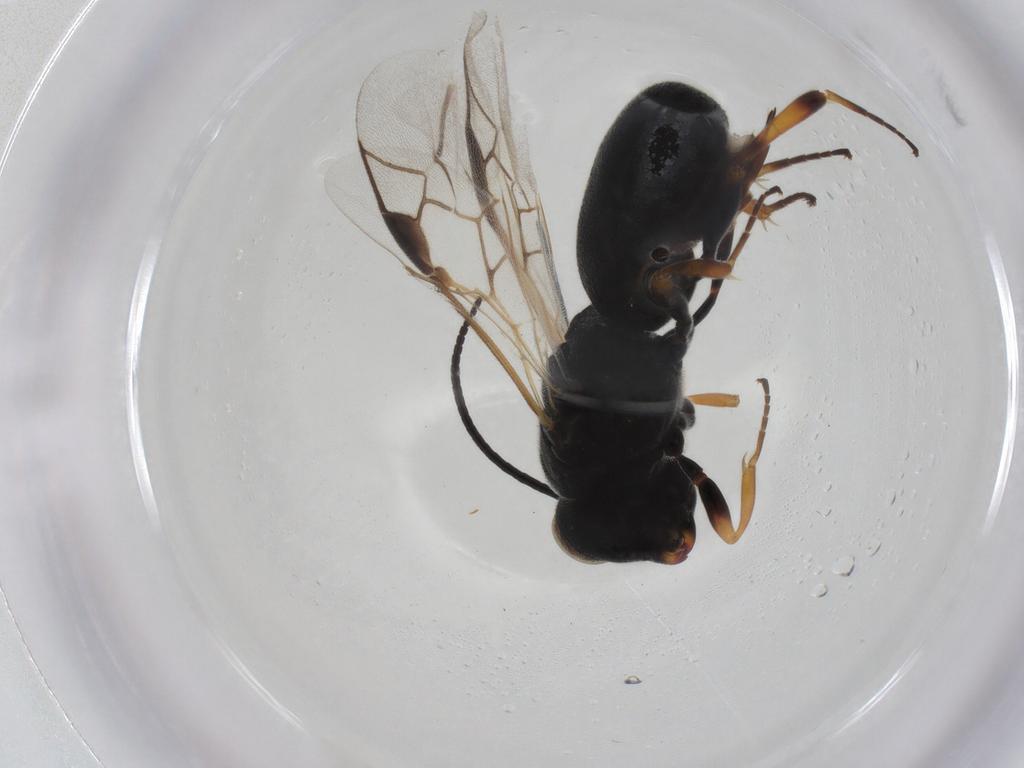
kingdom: Animalia
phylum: Arthropoda
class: Insecta
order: Hymenoptera
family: Braconidae
